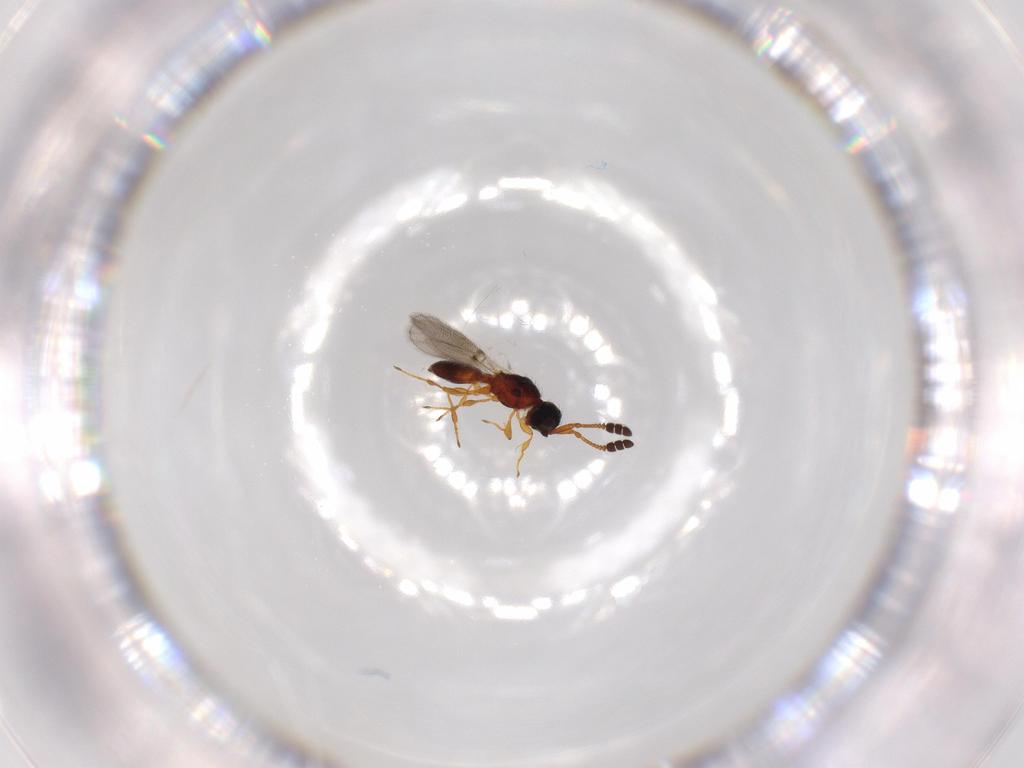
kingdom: Animalia
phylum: Arthropoda
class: Insecta
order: Hymenoptera
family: Diapriidae
